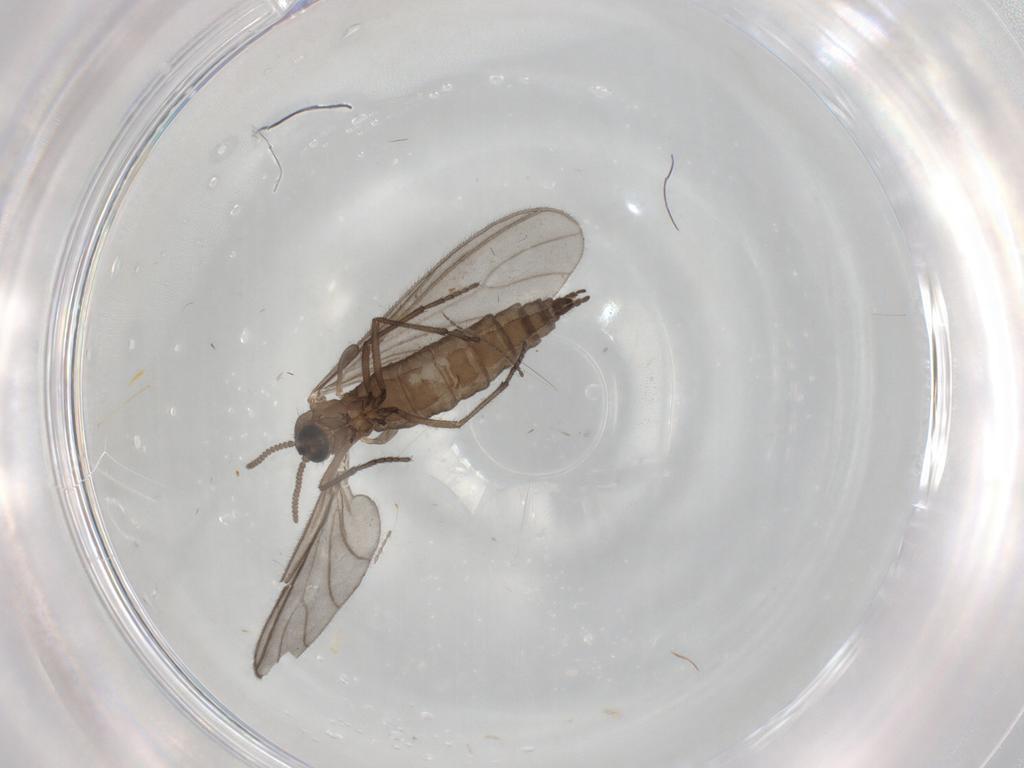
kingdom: Animalia
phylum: Arthropoda
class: Insecta
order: Diptera
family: Sciaridae
